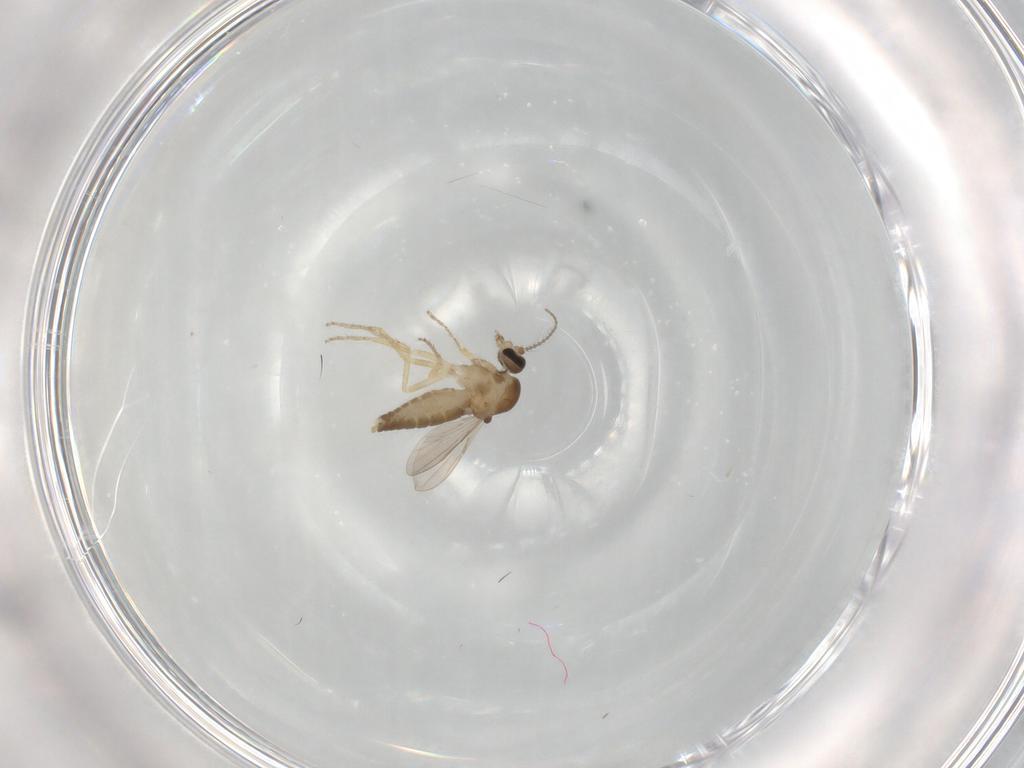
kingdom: Animalia
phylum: Arthropoda
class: Insecta
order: Diptera
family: Ceratopogonidae
